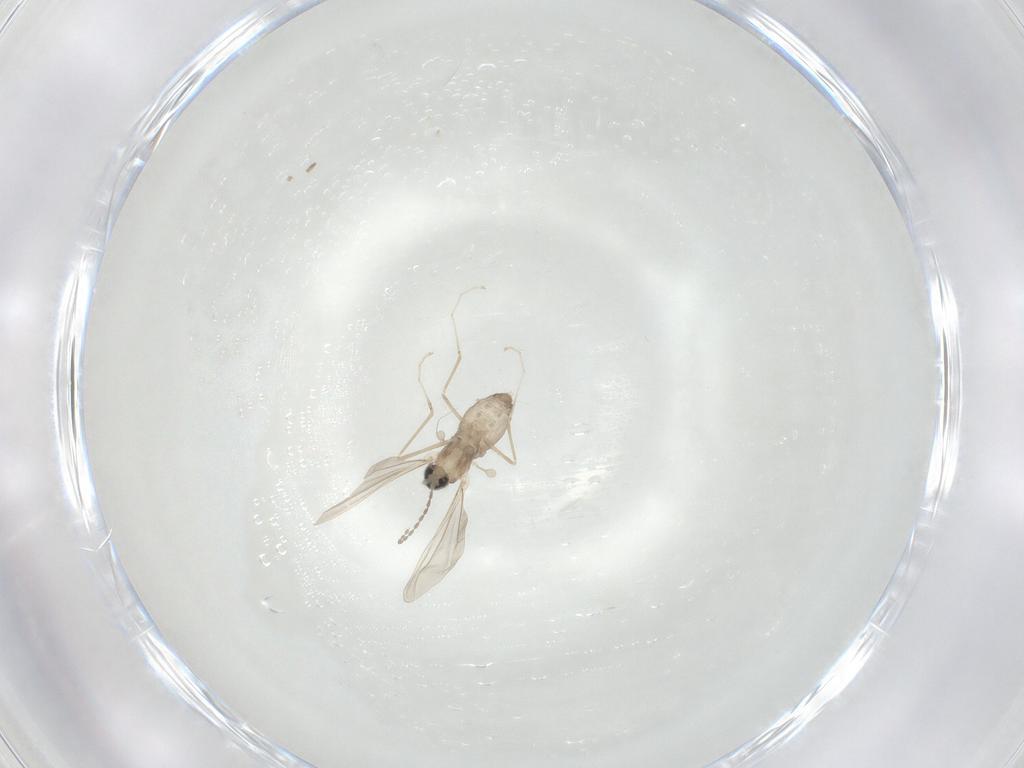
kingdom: Animalia
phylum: Arthropoda
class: Insecta
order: Diptera
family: Cecidomyiidae
